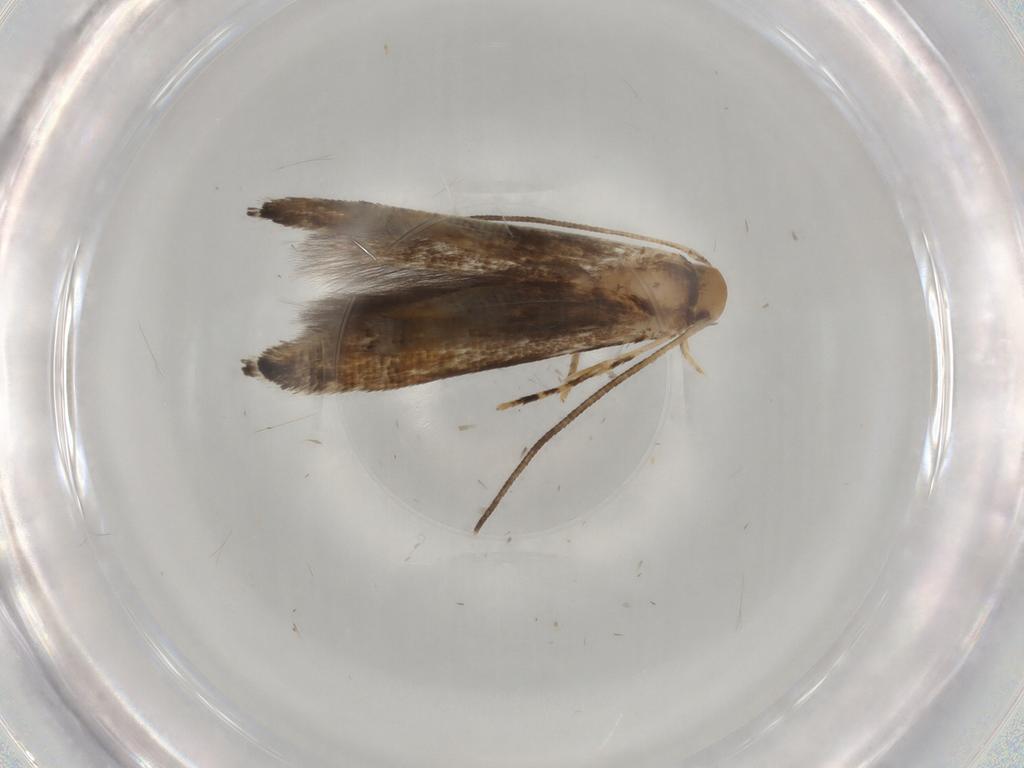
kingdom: Animalia
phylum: Arthropoda
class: Insecta
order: Lepidoptera
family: Momphidae
